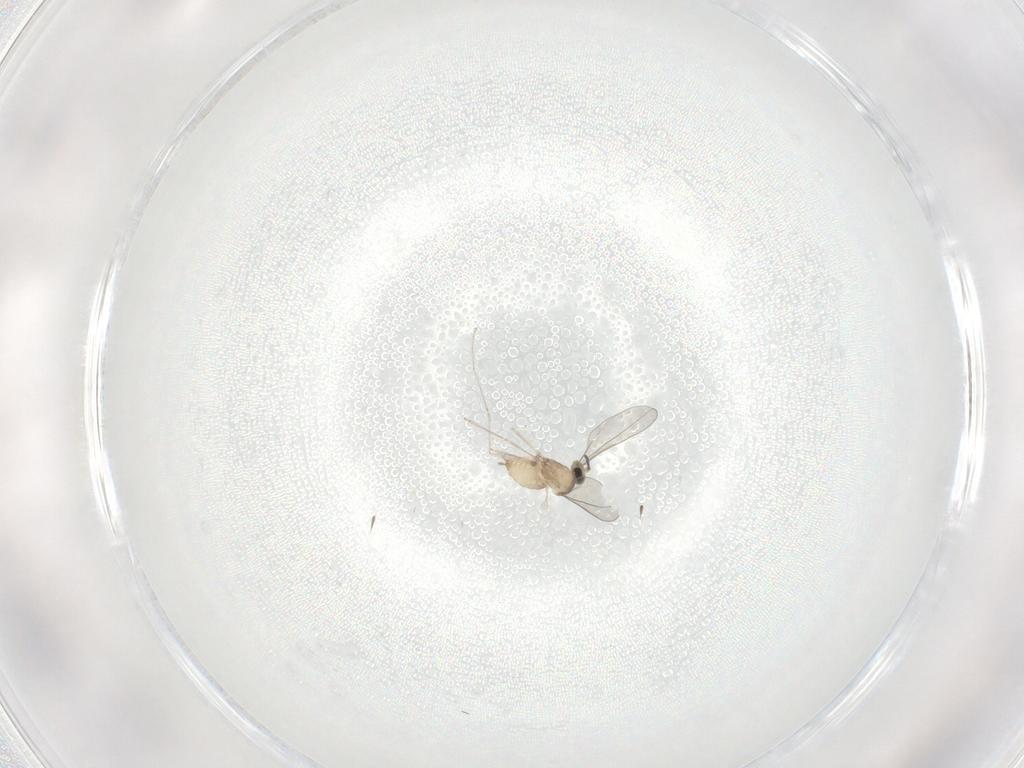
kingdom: Animalia
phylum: Arthropoda
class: Insecta
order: Diptera
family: Cecidomyiidae
